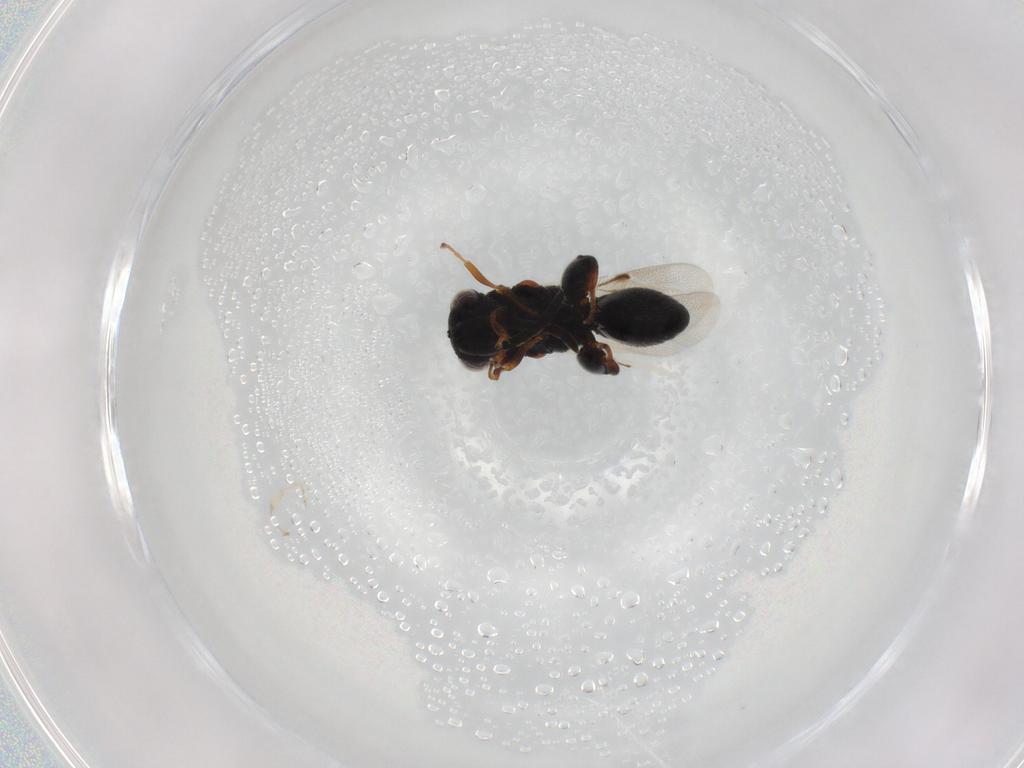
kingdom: Animalia
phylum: Arthropoda
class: Insecta
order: Hymenoptera
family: Chalcididae
